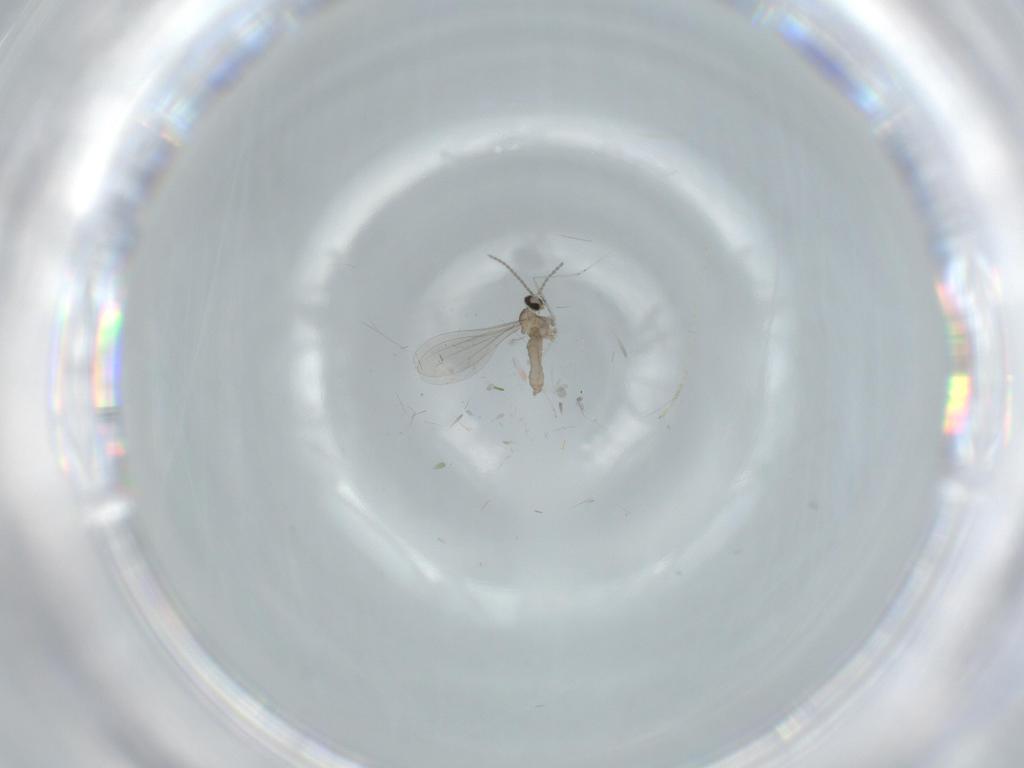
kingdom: Animalia
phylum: Arthropoda
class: Insecta
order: Diptera
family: Cecidomyiidae
